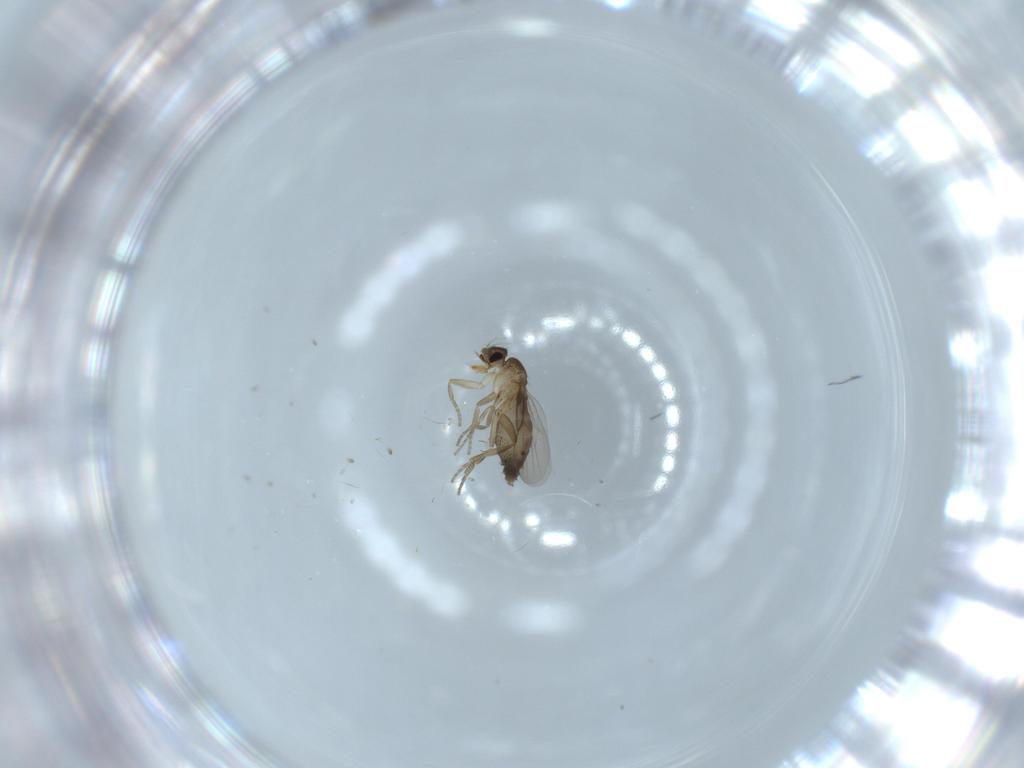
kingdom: Animalia
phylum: Arthropoda
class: Insecta
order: Diptera
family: Phoridae
